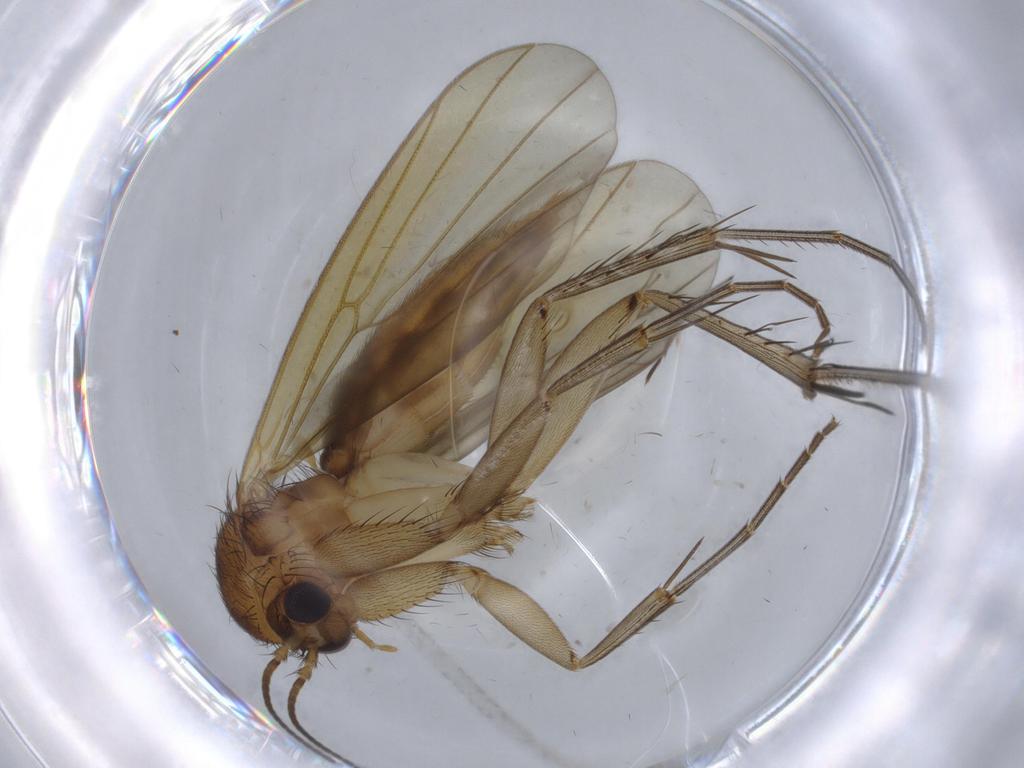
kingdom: Animalia
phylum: Arthropoda
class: Insecta
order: Diptera
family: Mycetophilidae
